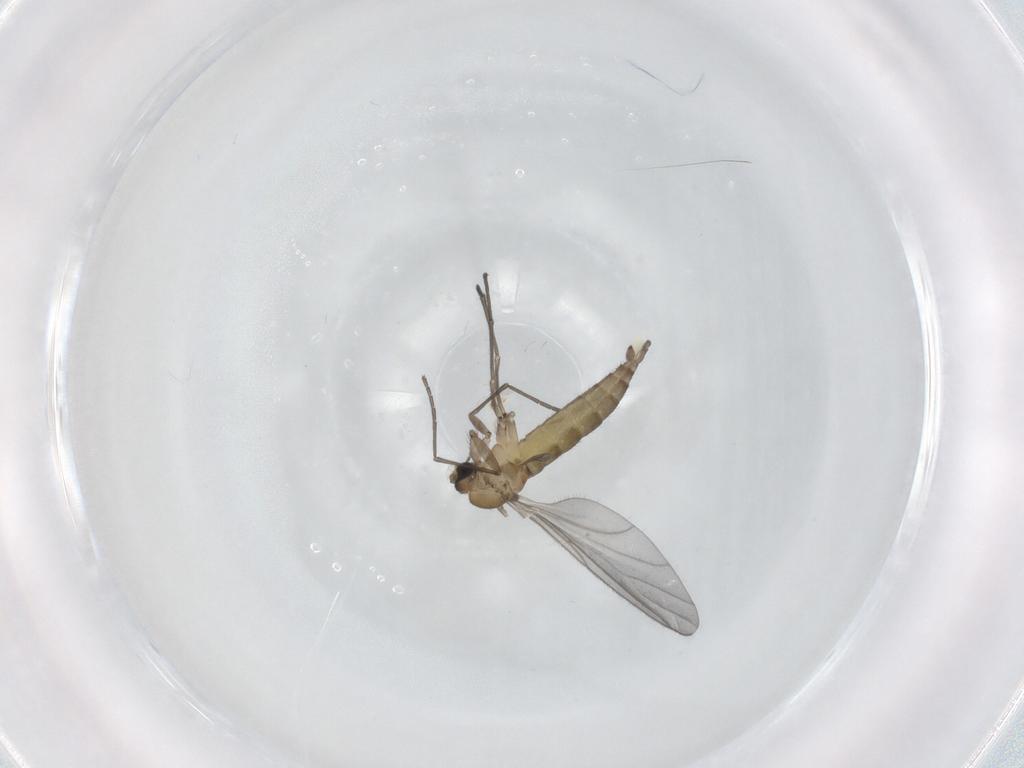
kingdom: Animalia
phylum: Arthropoda
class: Insecta
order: Diptera
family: Sciaridae
